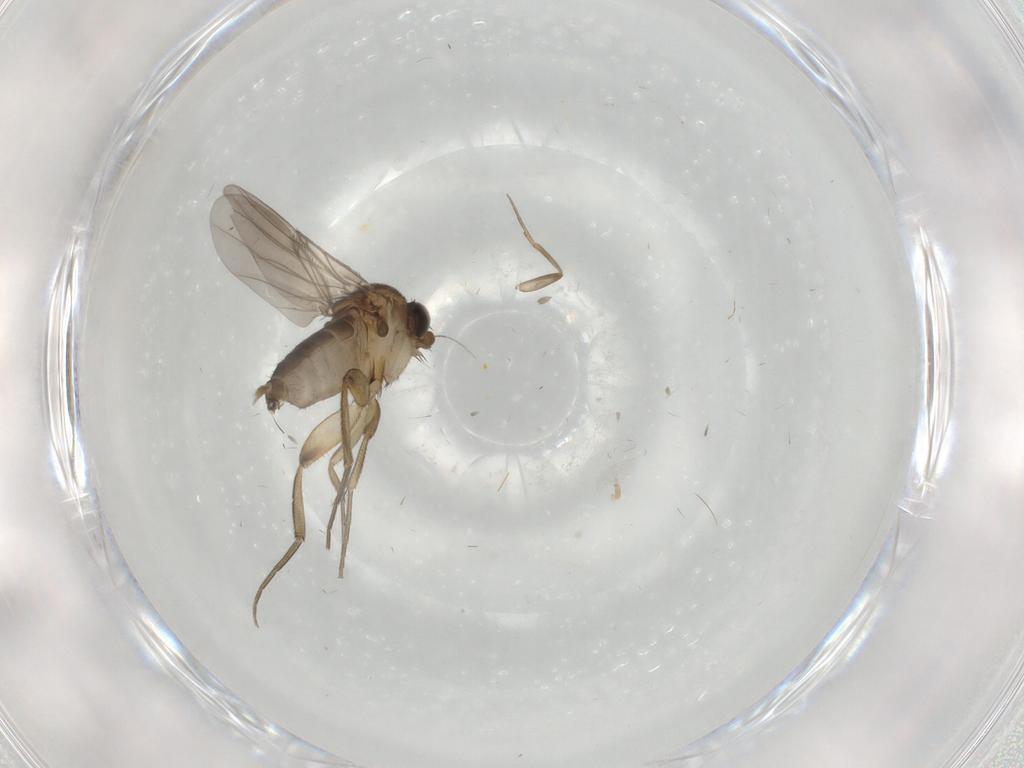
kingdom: Animalia
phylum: Arthropoda
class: Insecta
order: Diptera
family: Phoridae
